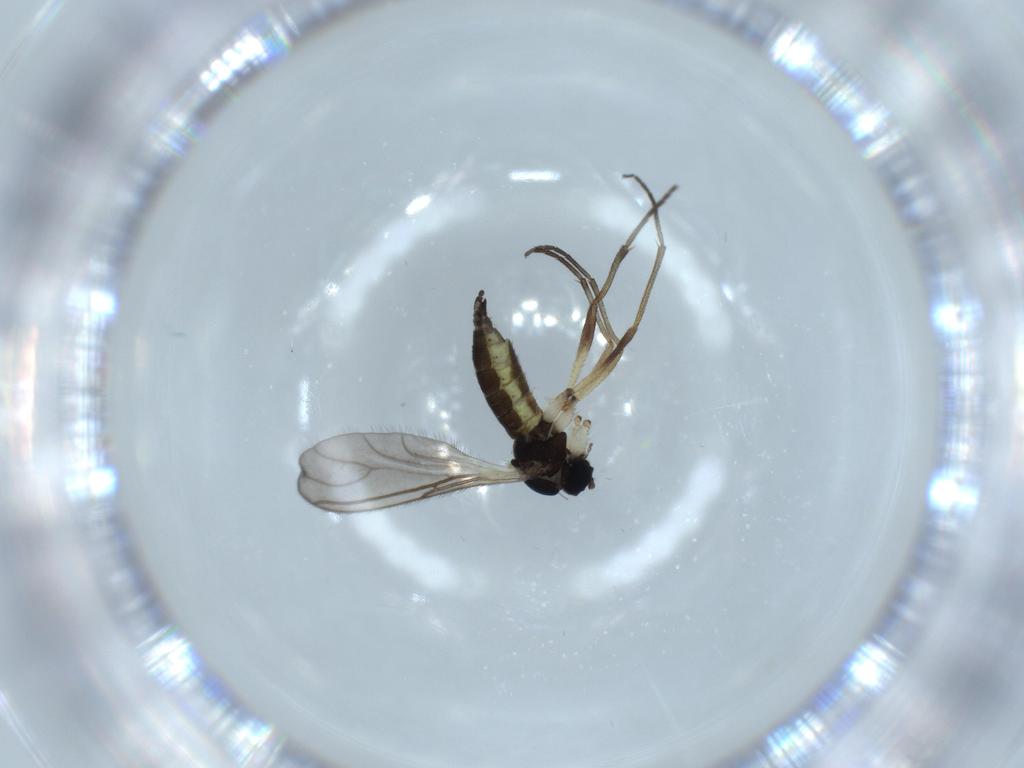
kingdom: Animalia
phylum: Arthropoda
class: Insecta
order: Diptera
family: Sciaridae
